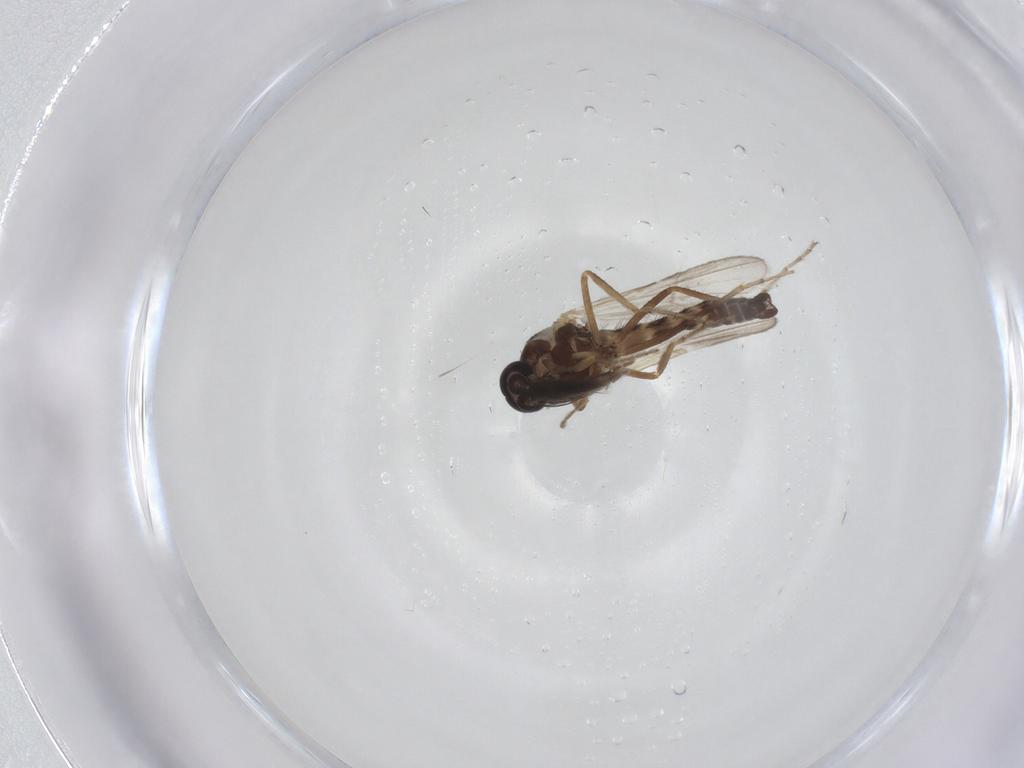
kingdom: Animalia
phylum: Arthropoda
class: Insecta
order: Diptera
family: Ceratopogonidae
